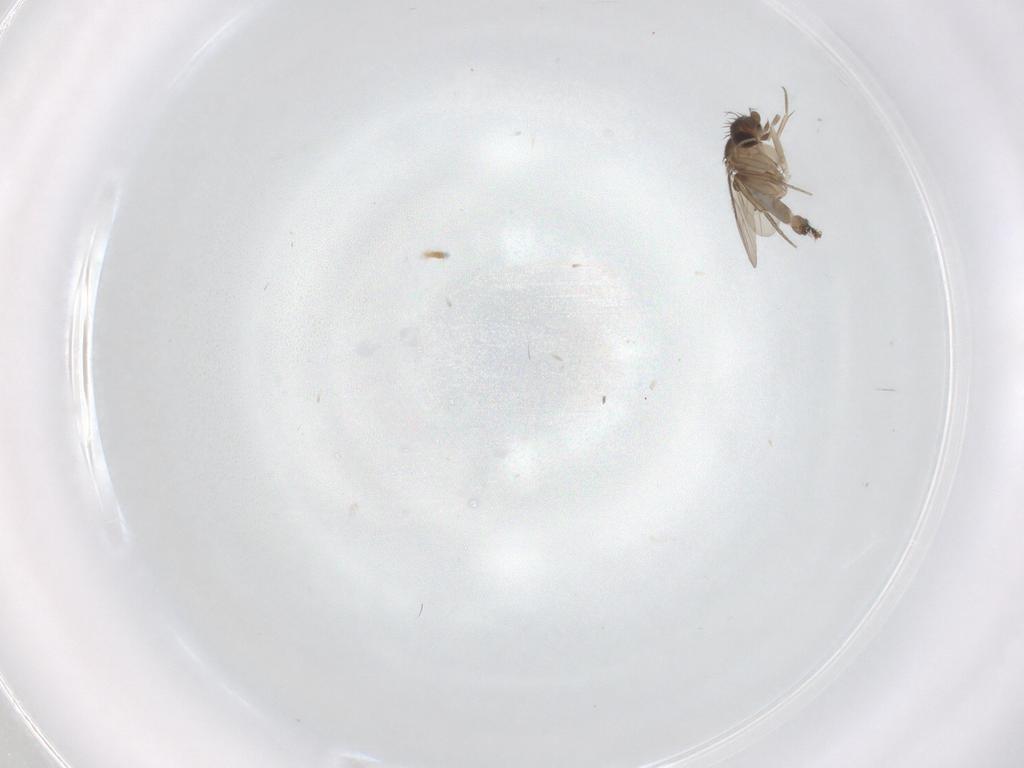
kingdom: Animalia
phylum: Arthropoda
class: Insecta
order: Diptera
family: Phoridae
